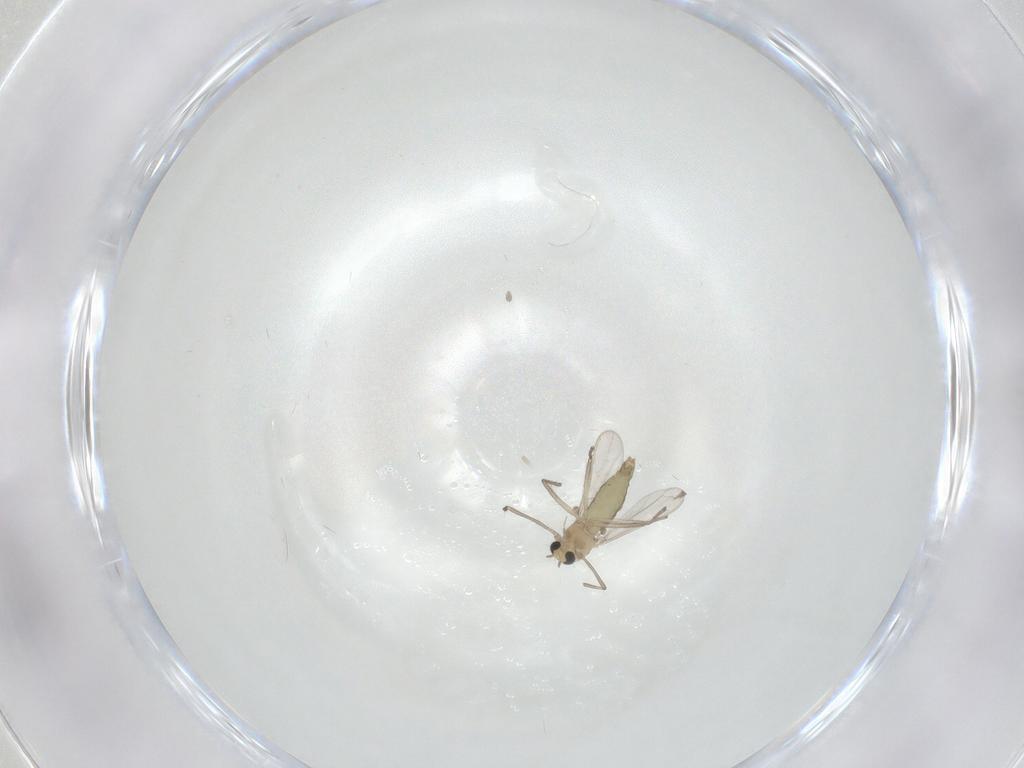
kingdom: Animalia
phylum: Arthropoda
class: Insecta
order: Diptera
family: Chironomidae
